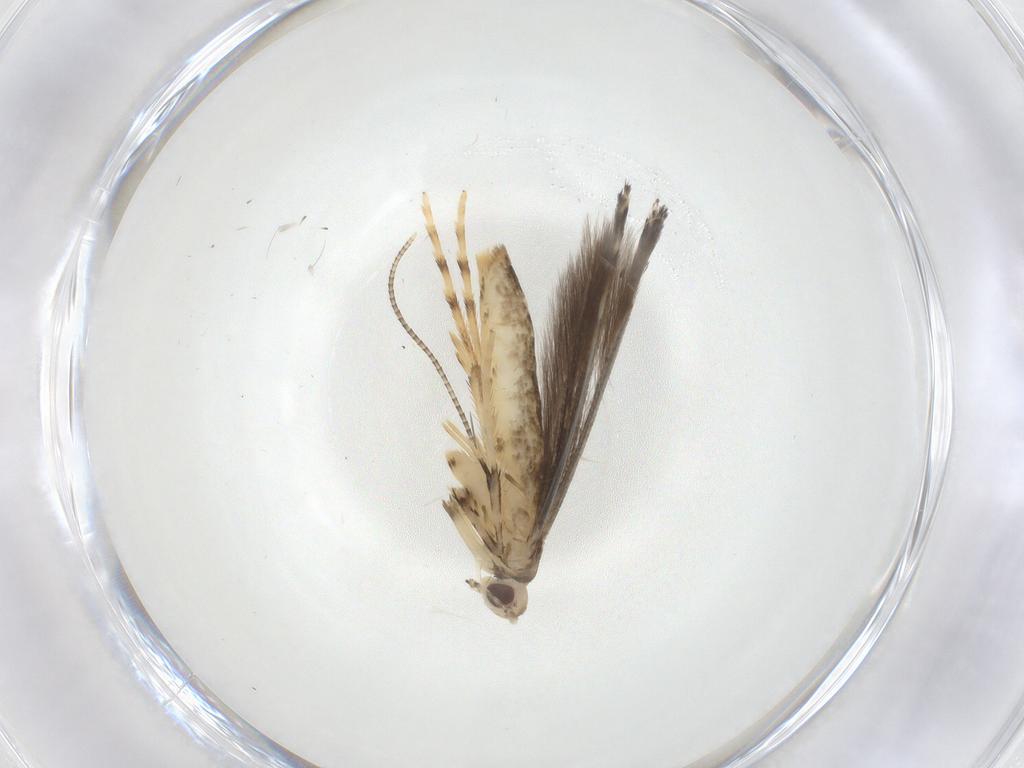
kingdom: Animalia
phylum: Arthropoda
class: Insecta
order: Lepidoptera
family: Gracillariidae
